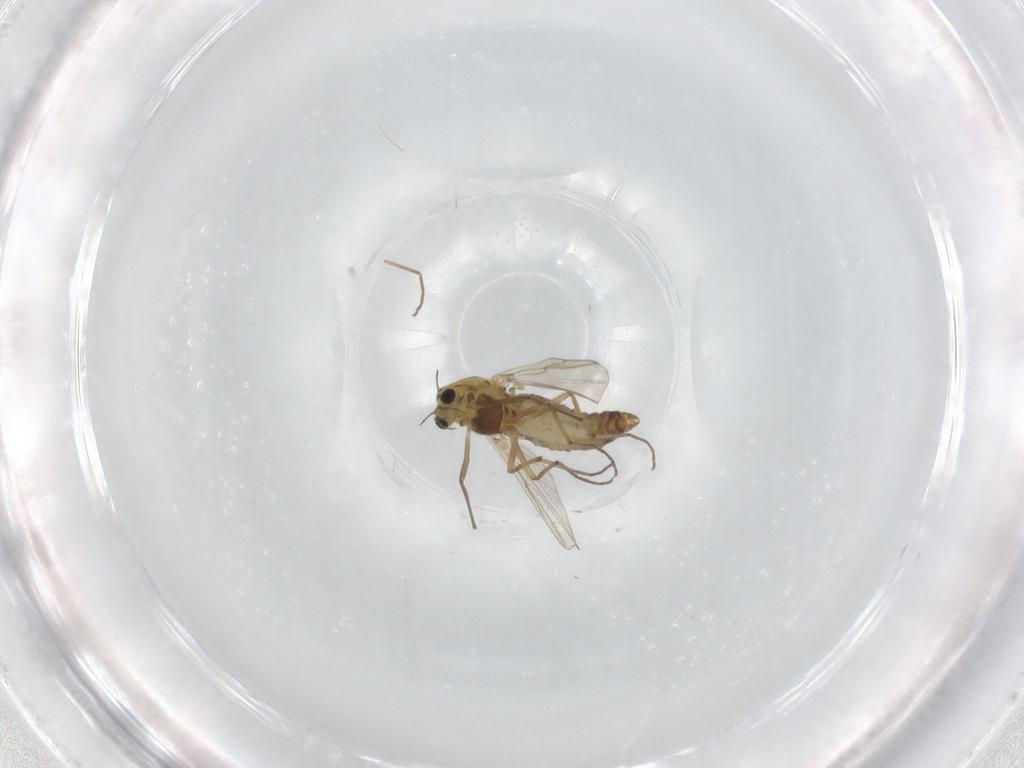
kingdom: Animalia
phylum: Arthropoda
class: Insecta
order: Diptera
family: Chironomidae
